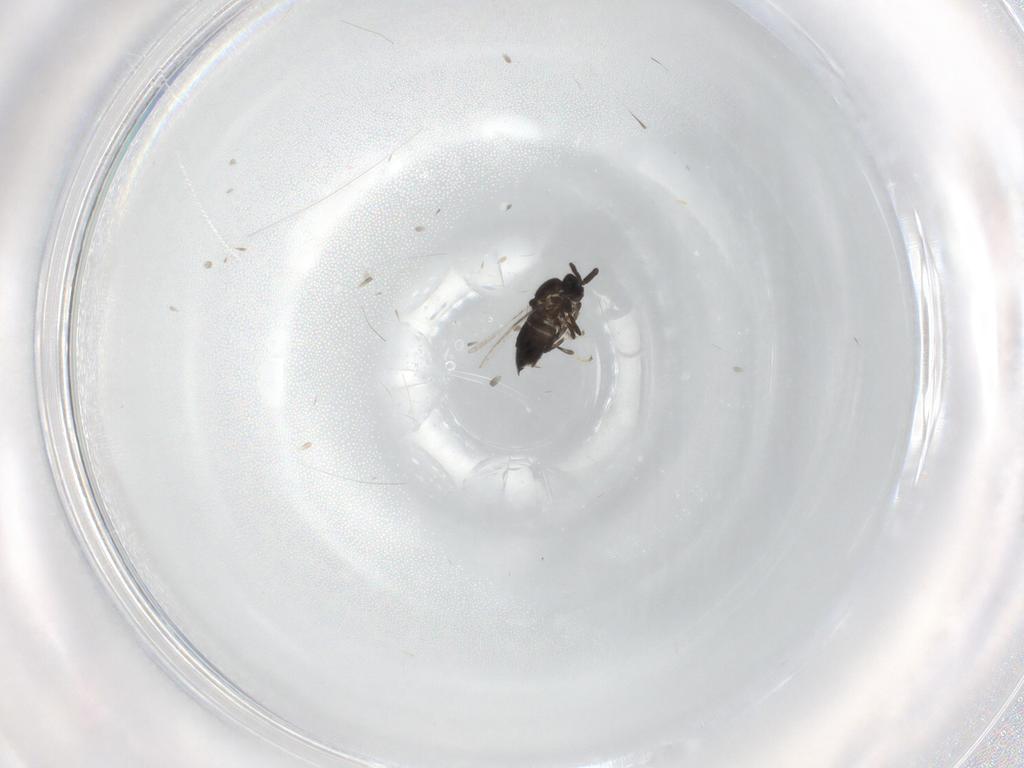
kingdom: Animalia
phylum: Arthropoda
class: Insecta
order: Diptera
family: Scatopsidae
